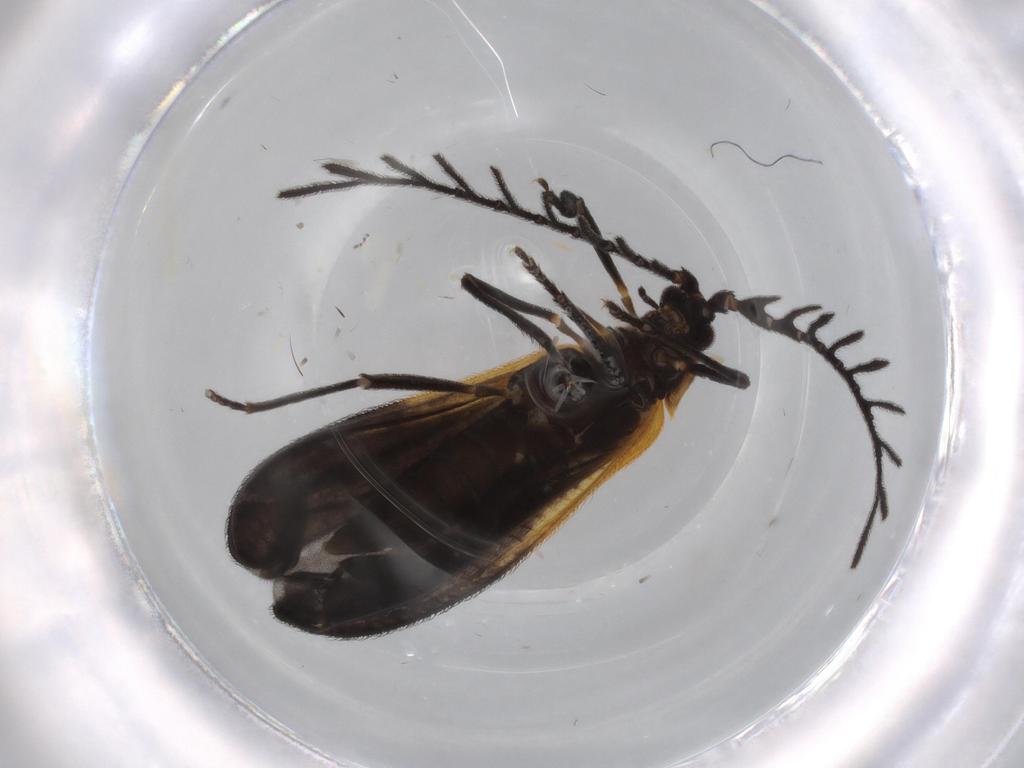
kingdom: Animalia
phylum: Arthropoda
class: Insecta
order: Coleoptera
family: Lycidae
